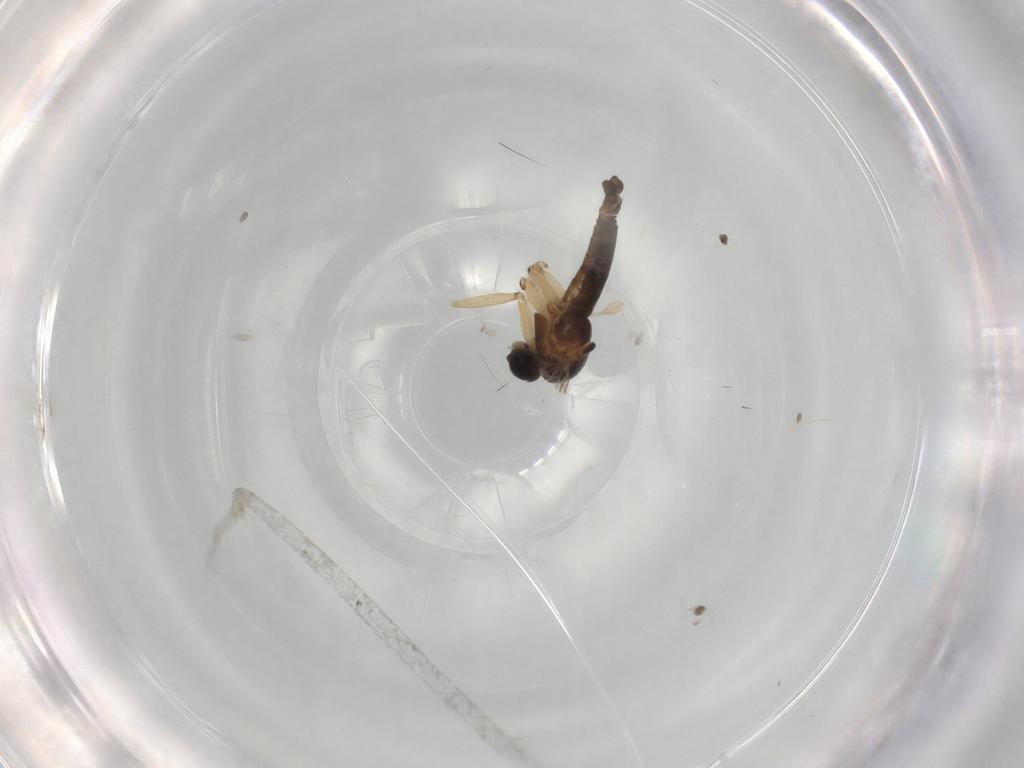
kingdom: Animalia
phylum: Arthropoda
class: Insecta
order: Diptera
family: Sciaridae
